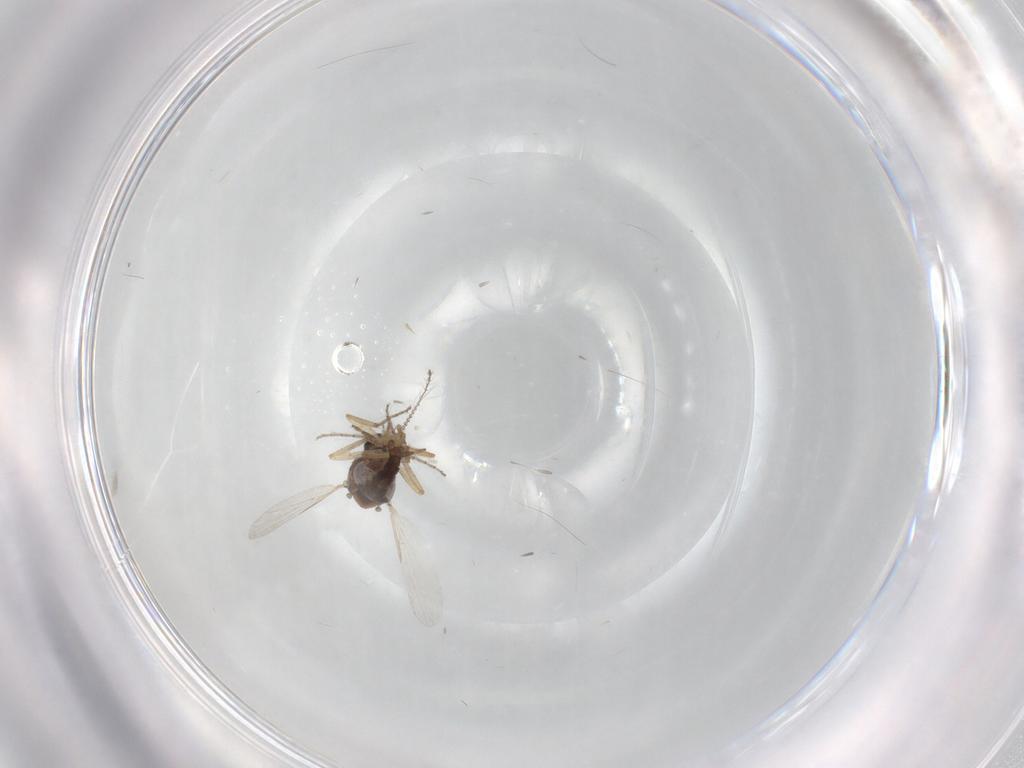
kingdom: Animalia
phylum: Arthropoda
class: Insecta
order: Diptera
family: Ceratopogonidae
